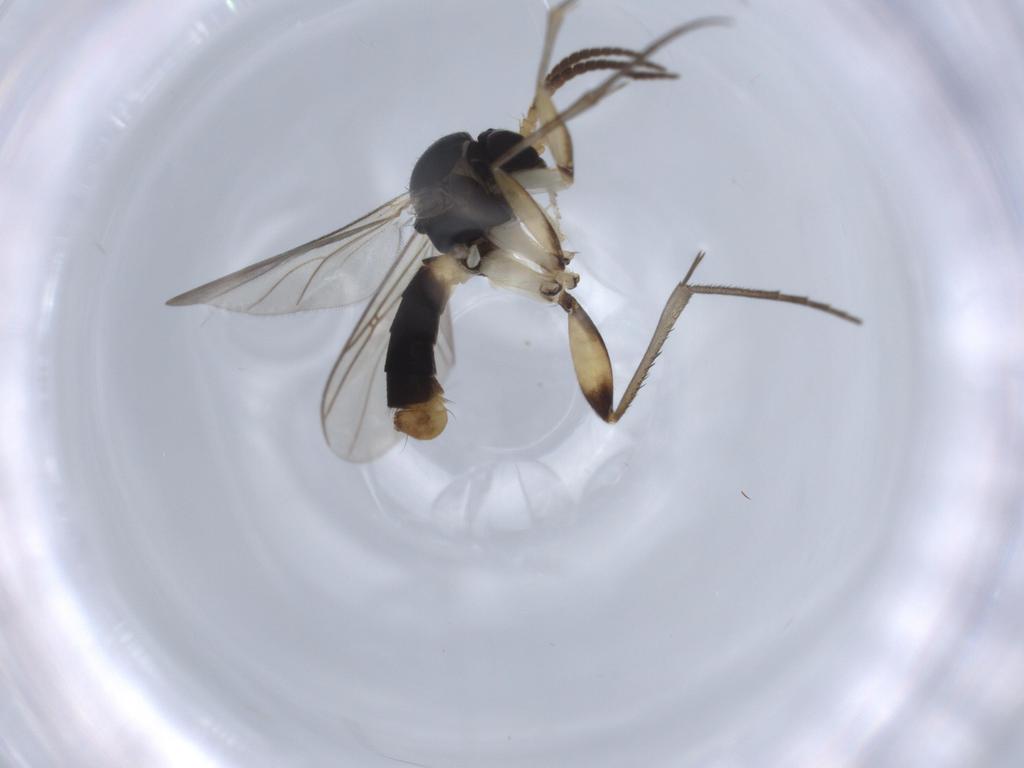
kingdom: Animalia
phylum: Arthropoda
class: Insecta
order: Diptera
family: Mycetophilidae
